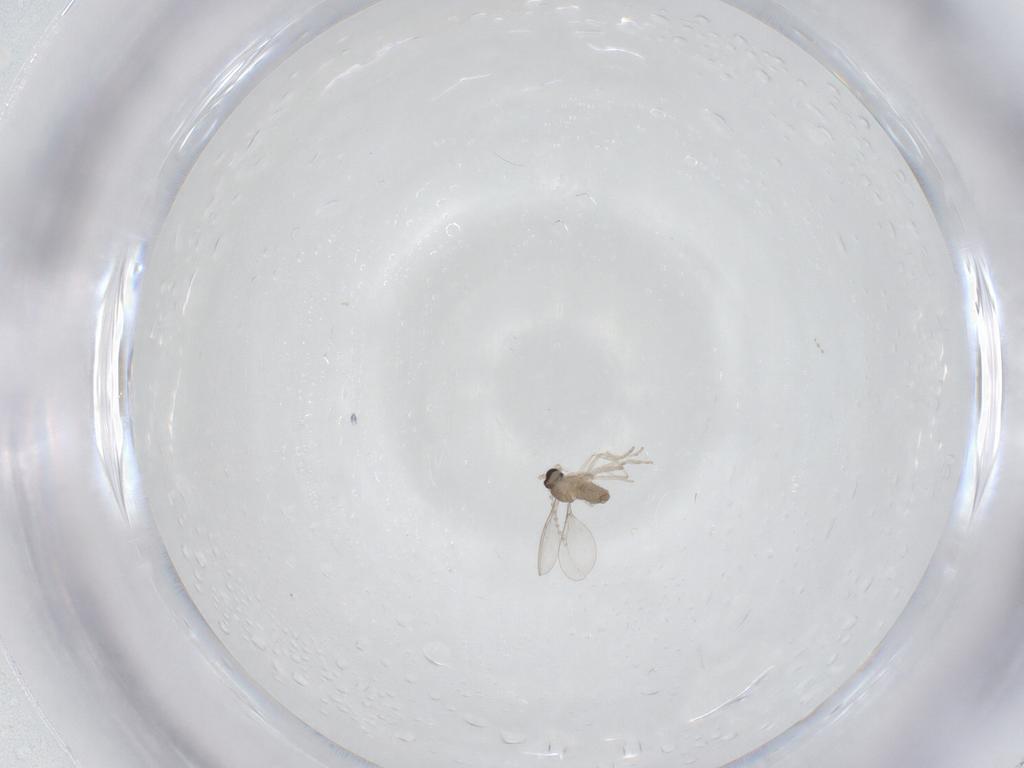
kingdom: Animalia
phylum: Arthropoda
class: Insecta
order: Diptera
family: Cecidomyiidae
